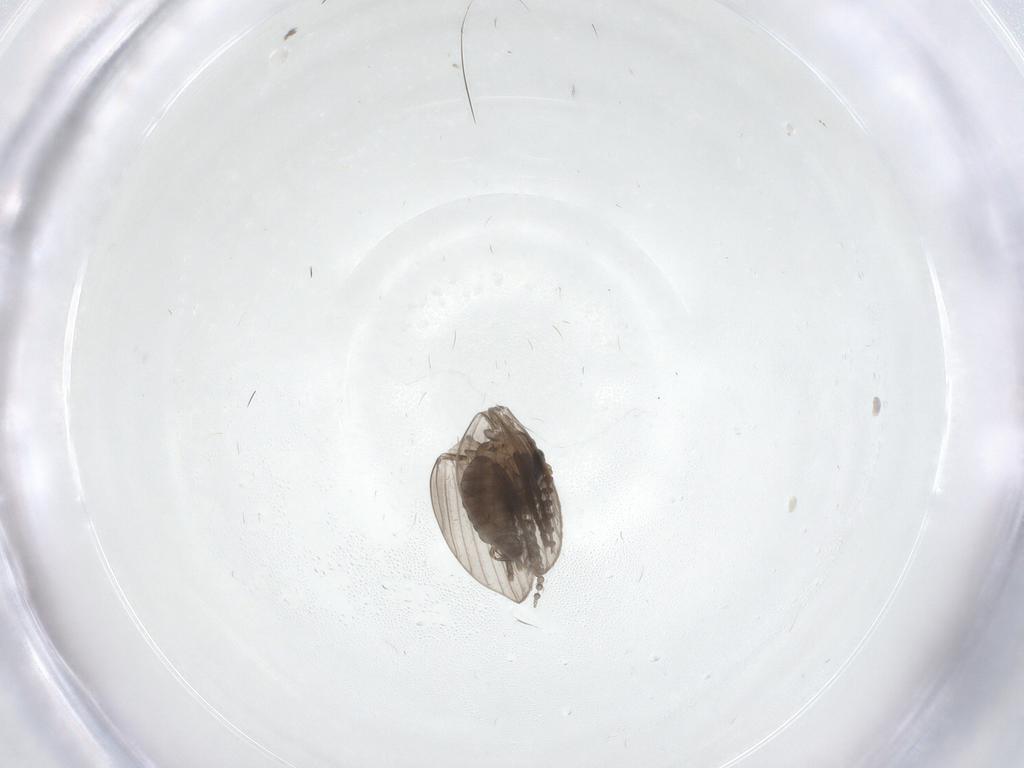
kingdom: Animalia
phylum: Arthropoda
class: Insecta
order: Diptera
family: Psychodidae
